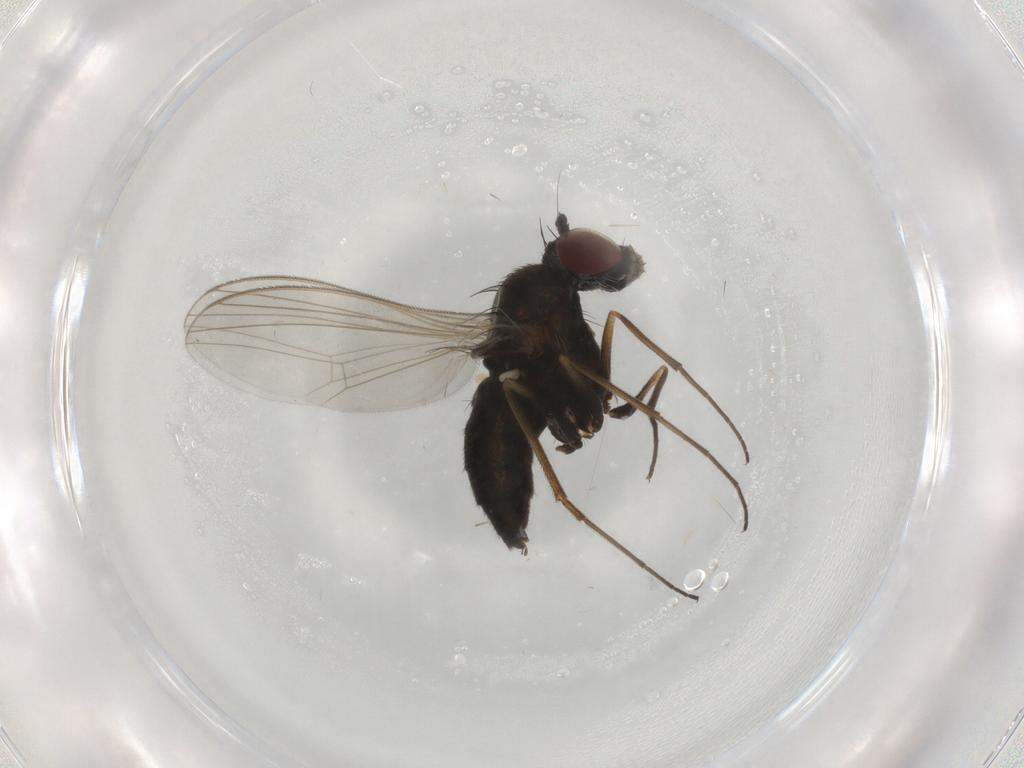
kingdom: Animalia
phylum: Arthropoda
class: Insecta
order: Diptera
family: Dolichopodidae
